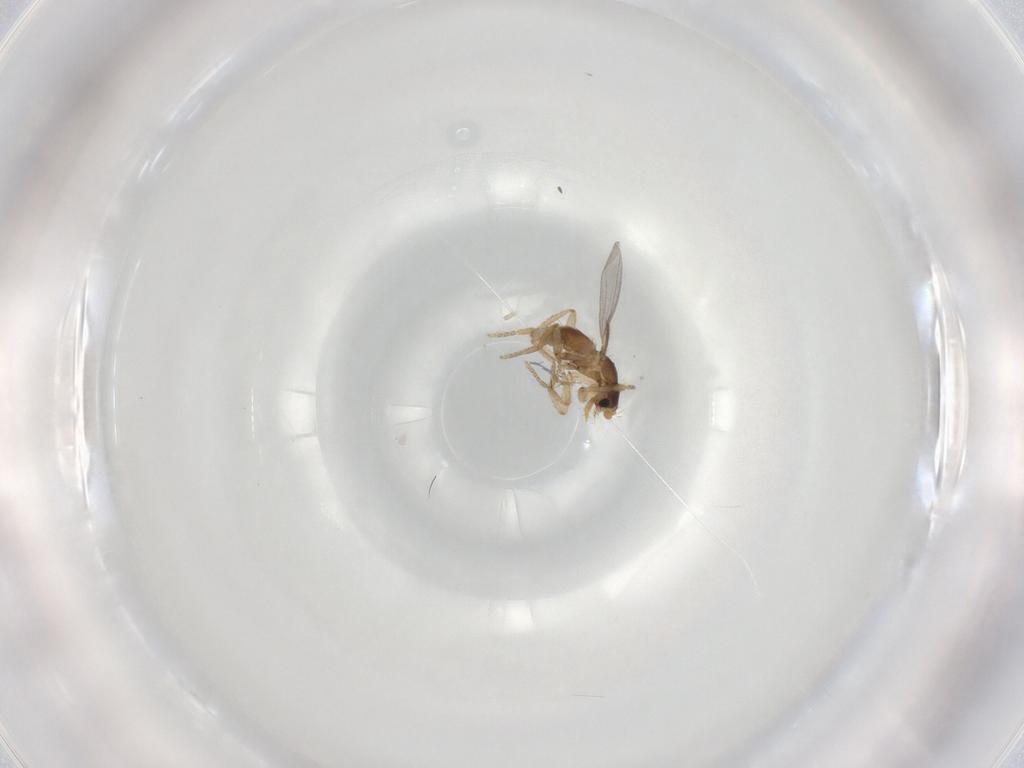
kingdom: Animalia
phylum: Arthropoda
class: Insecta
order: Diptera
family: Phoridae
